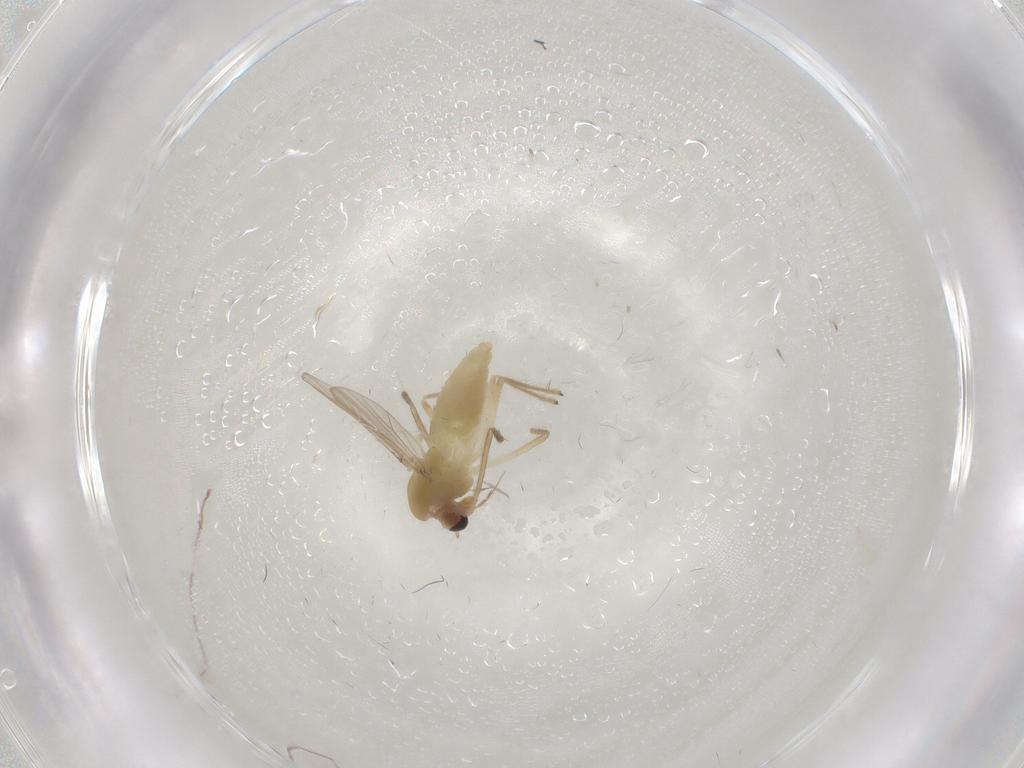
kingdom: Animalia
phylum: Arthropoda
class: Insecta
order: Diptera
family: Chironomidae
